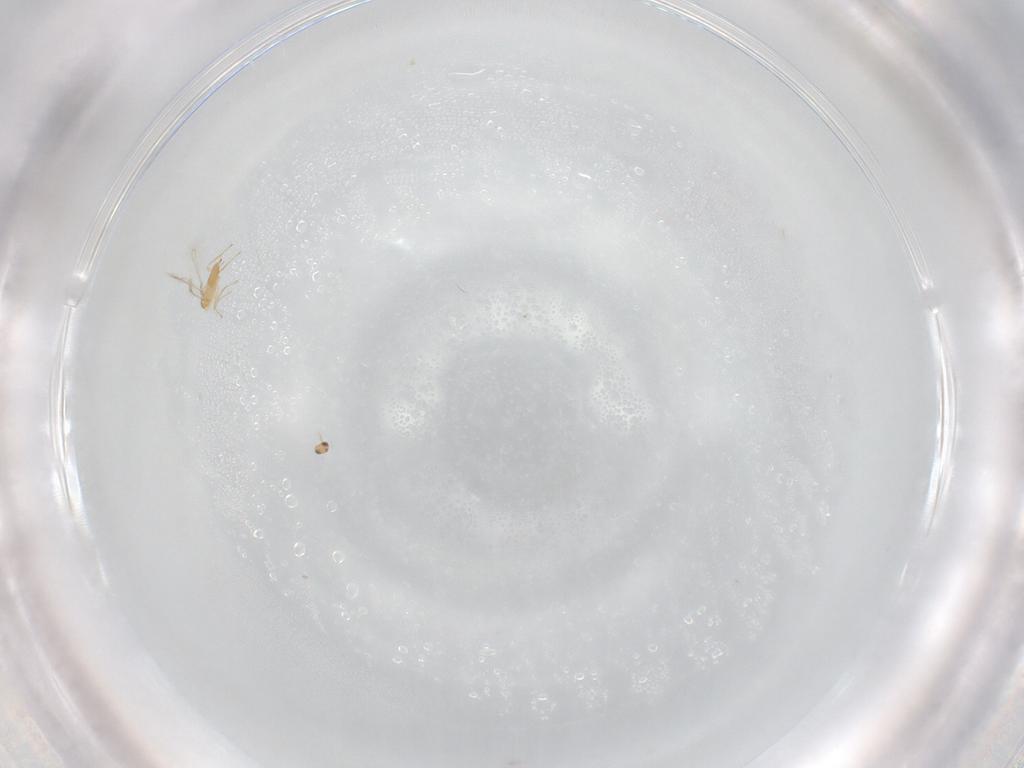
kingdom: Animalia
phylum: Arthropoda
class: Insecta
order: Hymenoptera
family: Mymaridae
